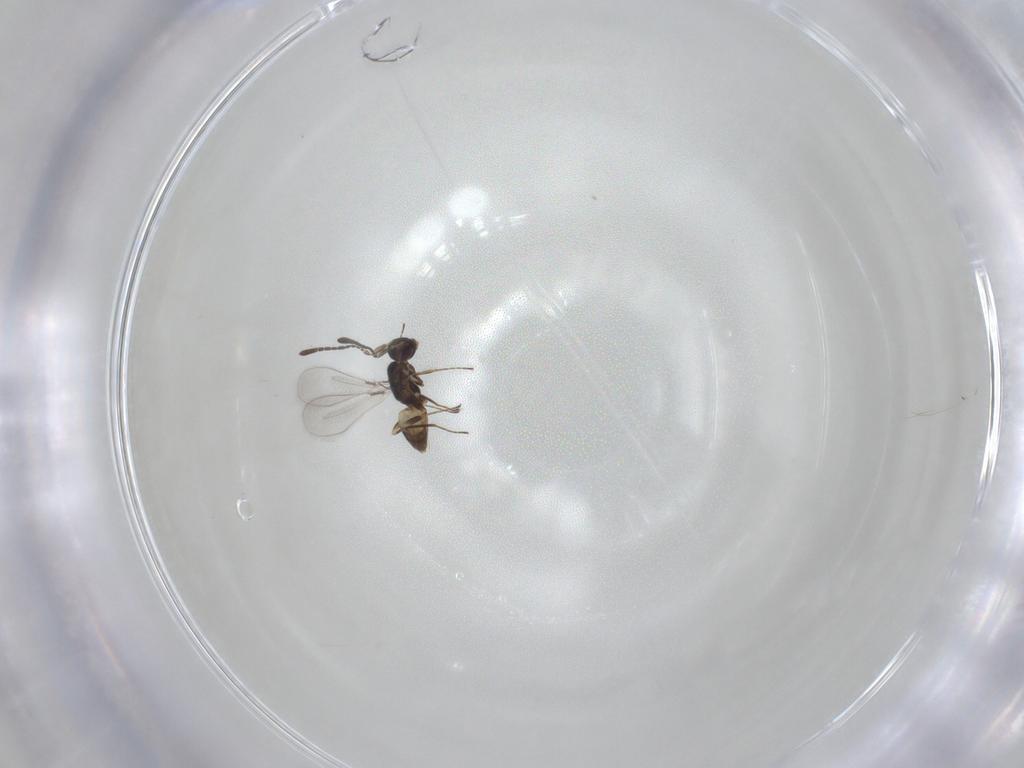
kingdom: Animalia
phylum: Arthropoda
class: Insecta
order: Hymenoptera
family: Mymaridae
